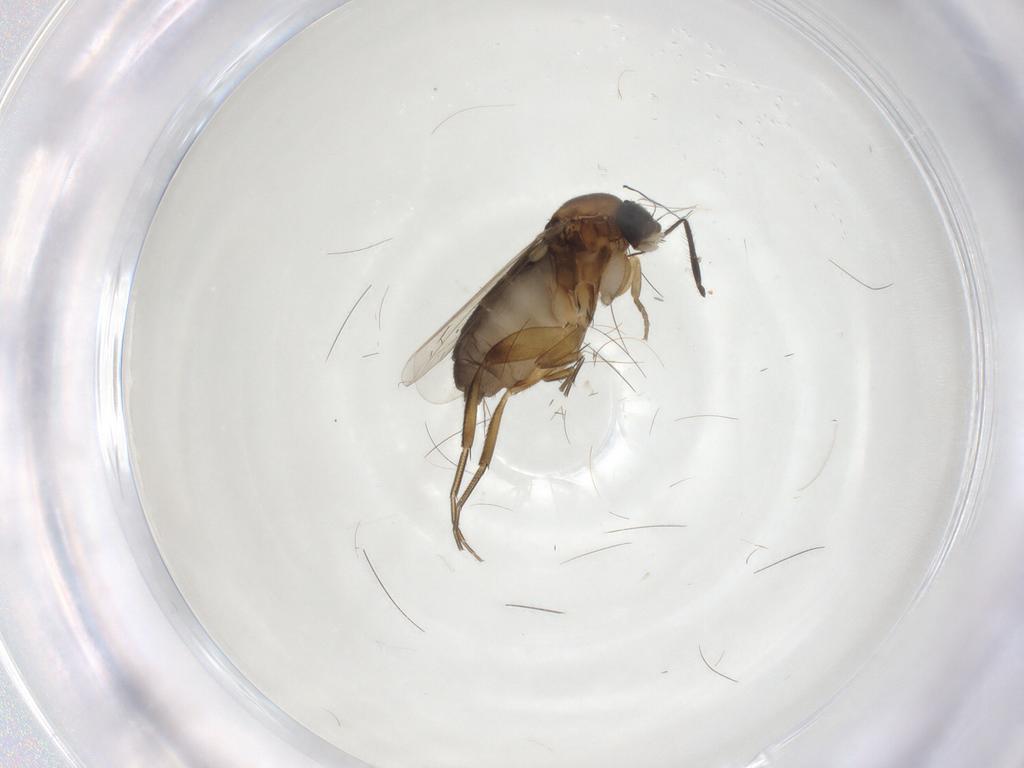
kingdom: Animalia
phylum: Arthropoda
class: Insecta
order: Diptera
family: Phoridae
